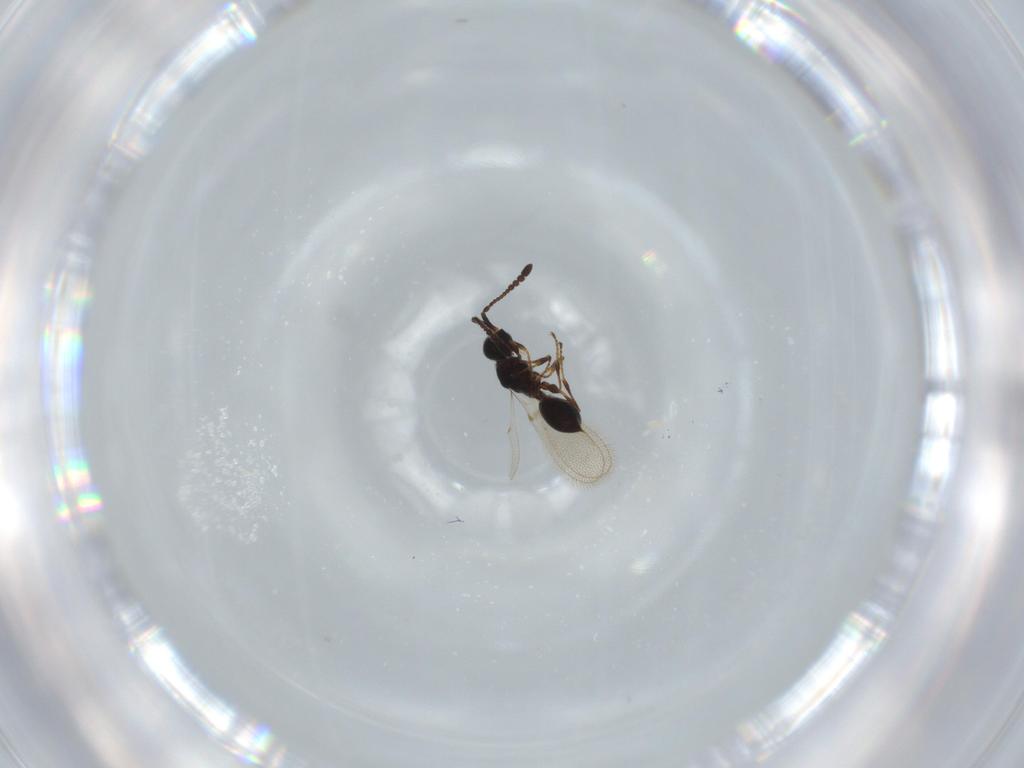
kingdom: Animalia
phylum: Arthropoda
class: Insecta
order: Hymenoptera
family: Diapriidae
